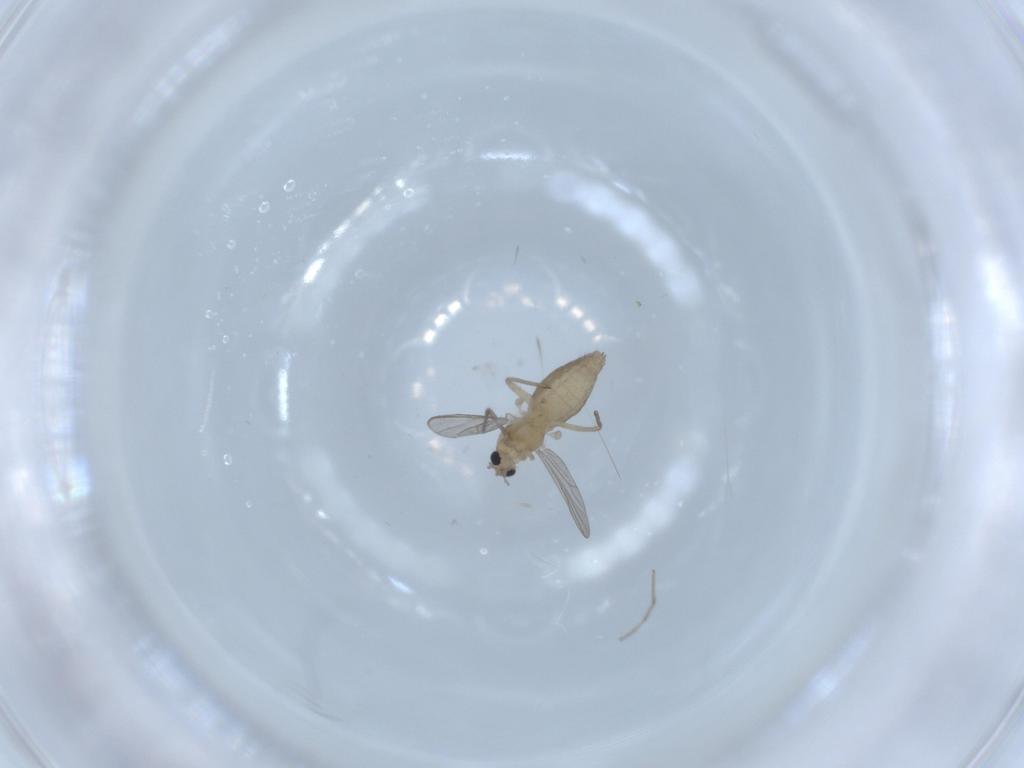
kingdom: Animalia
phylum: Arthropoda
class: Insecta
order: Diptera
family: Chironomidae
